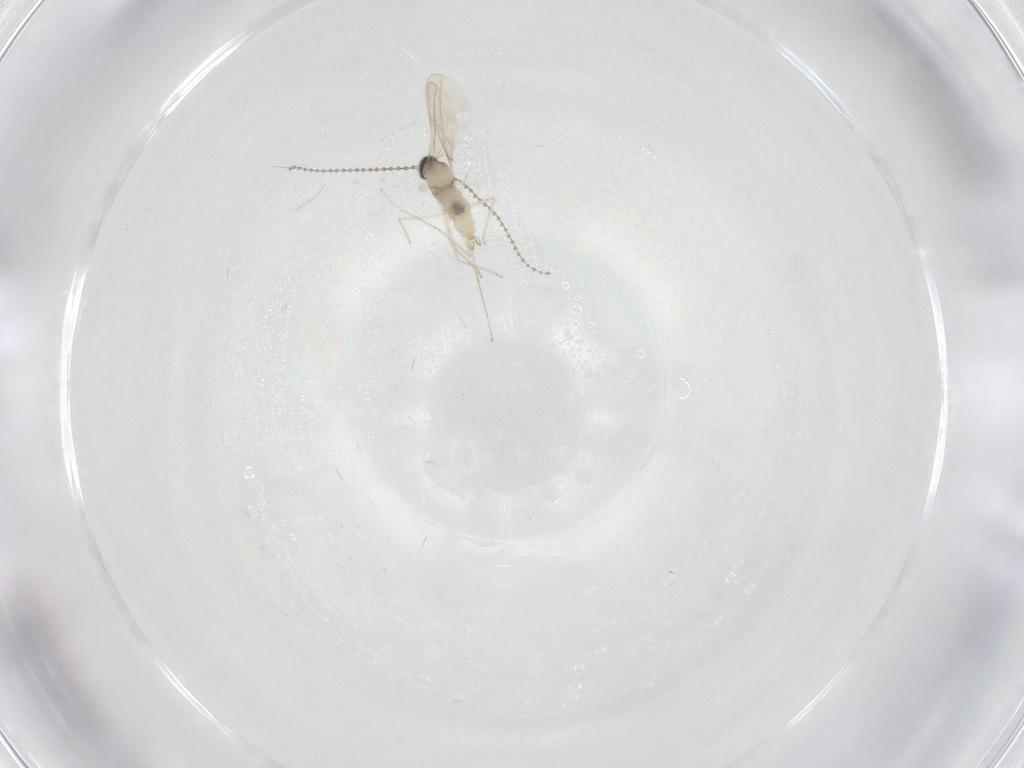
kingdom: Animalia
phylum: Arthropoda
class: Insecta
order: Diptera
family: Cecidomyiidae
